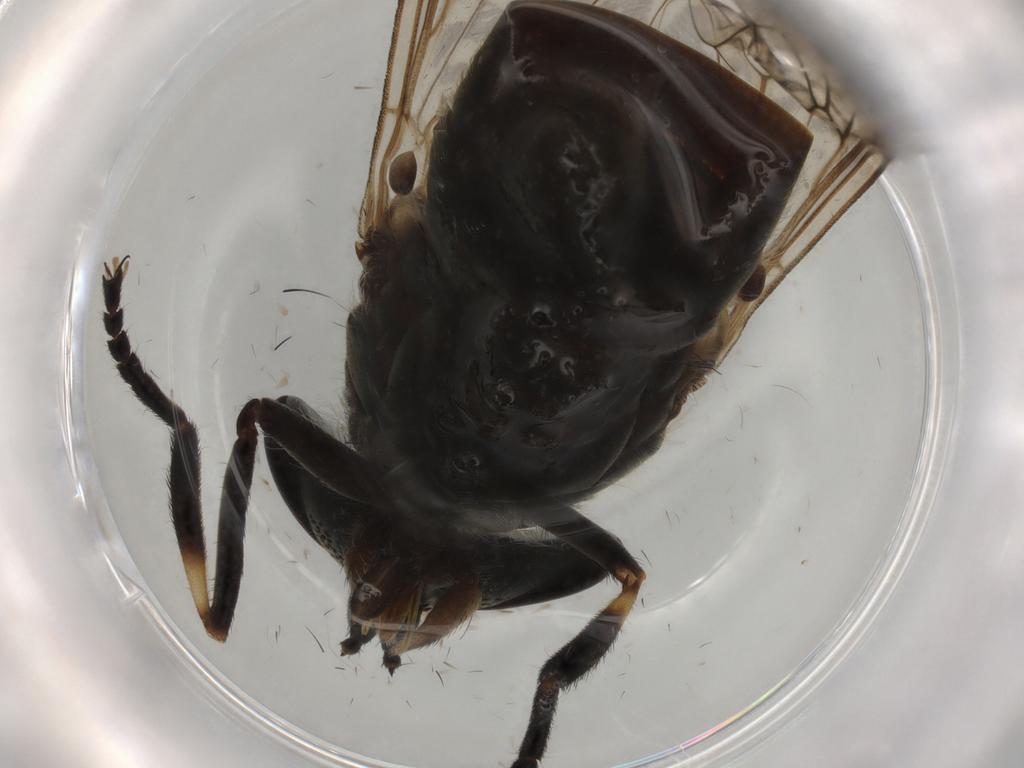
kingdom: Animalia
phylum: Arthropoda
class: Insecta
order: Diptera
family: Tabanidae
